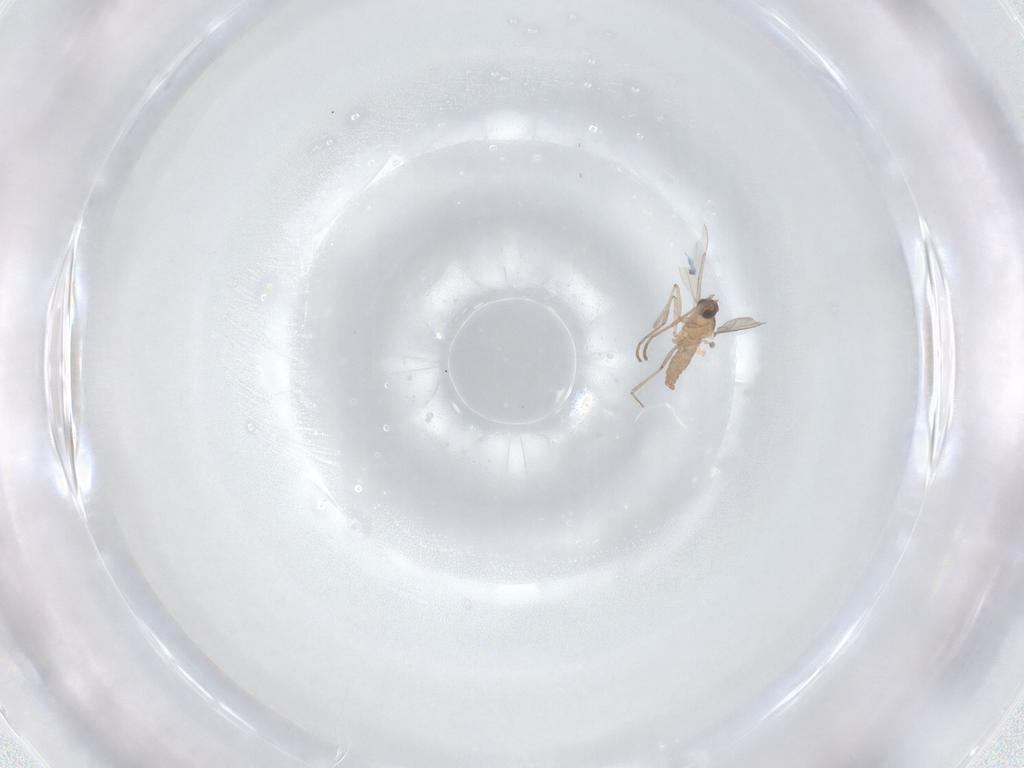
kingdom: Animalia
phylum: Arthropoda
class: Insecta
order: Diptera
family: Cecidomyiidae
